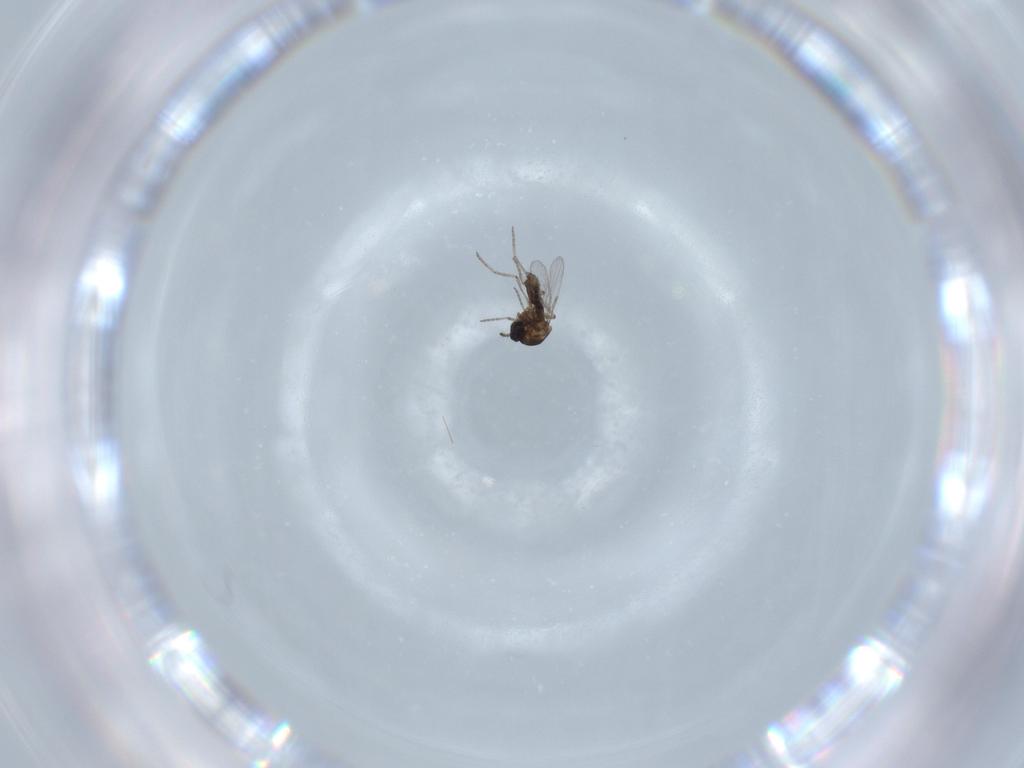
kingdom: Animalia
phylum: Arthropoda
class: Insecta
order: Diptera
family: Ceratopogonidae
